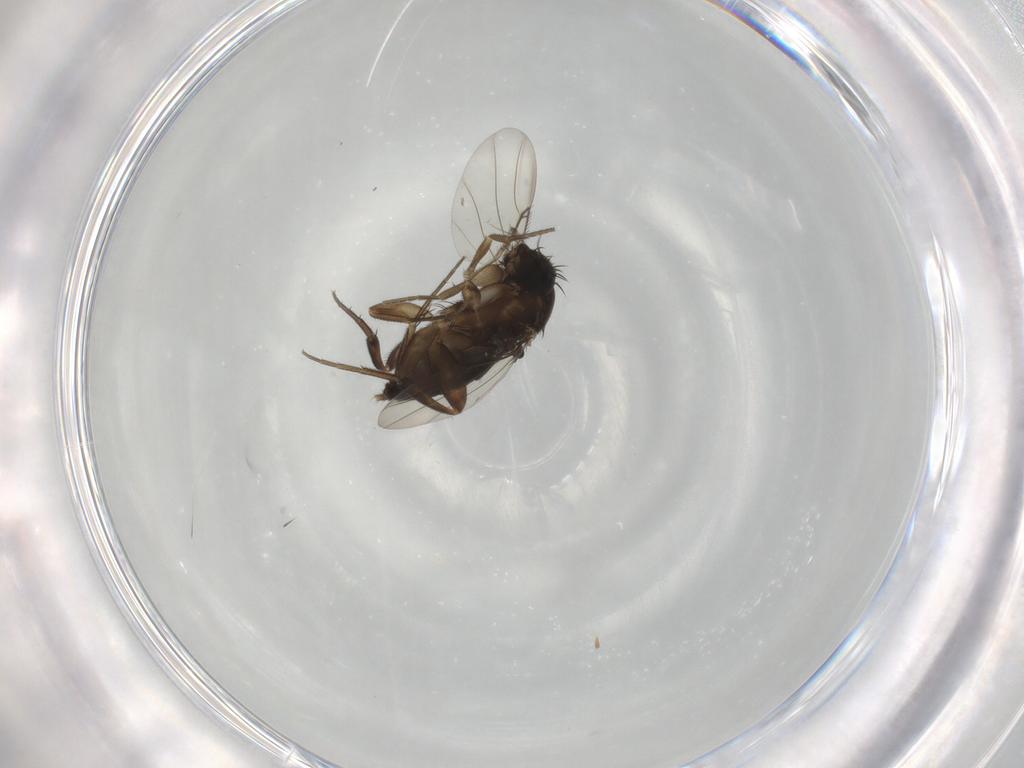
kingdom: Animalia
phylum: Arthropoda
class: Insecta
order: Diptera
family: Phoridae
